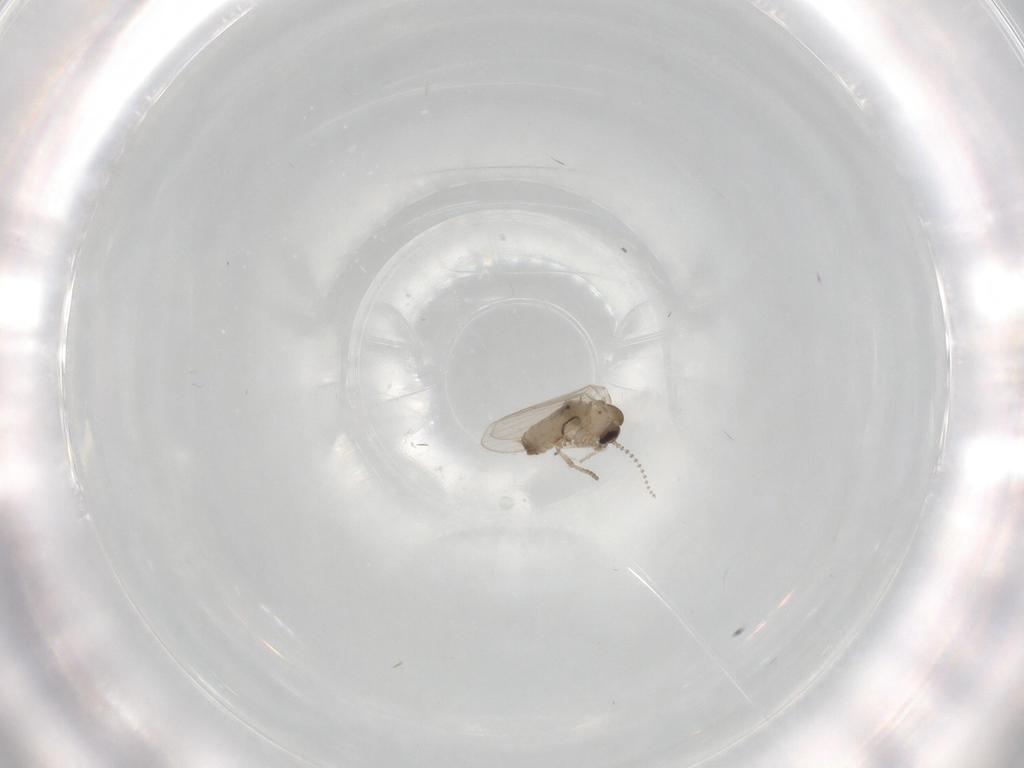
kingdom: Animalia
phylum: Arthropoda
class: Insecta
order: Diptera
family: Psychodidae
